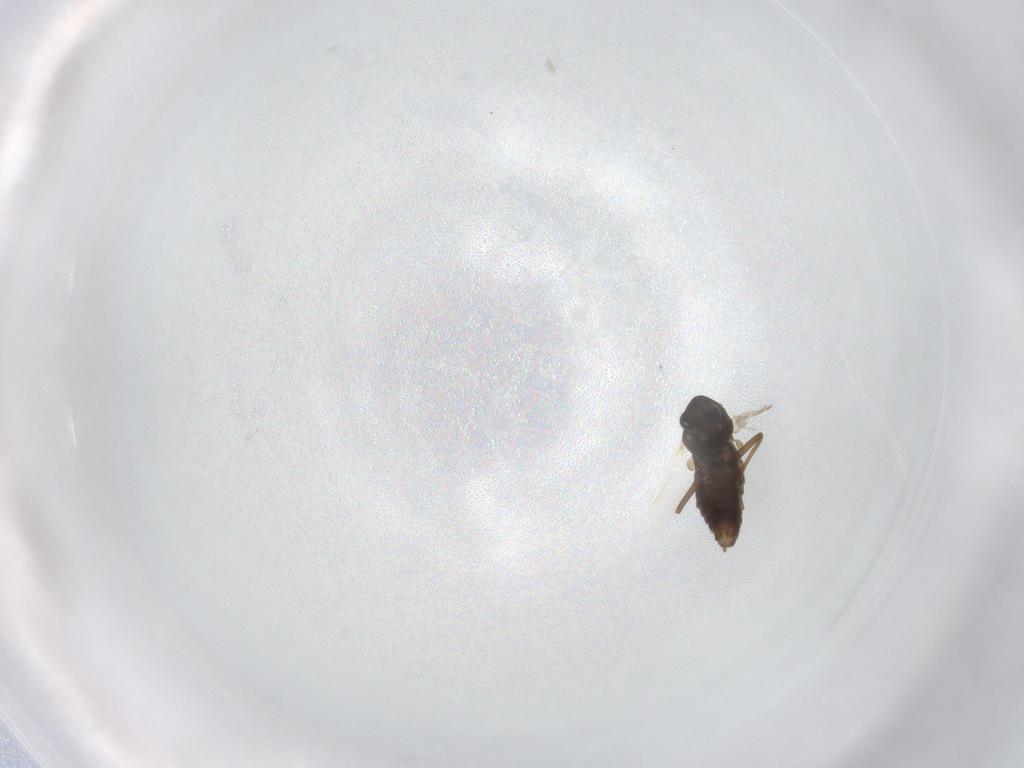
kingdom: Animalia
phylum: Arthropoda
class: Insecta
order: Diptera
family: Chironomidae
